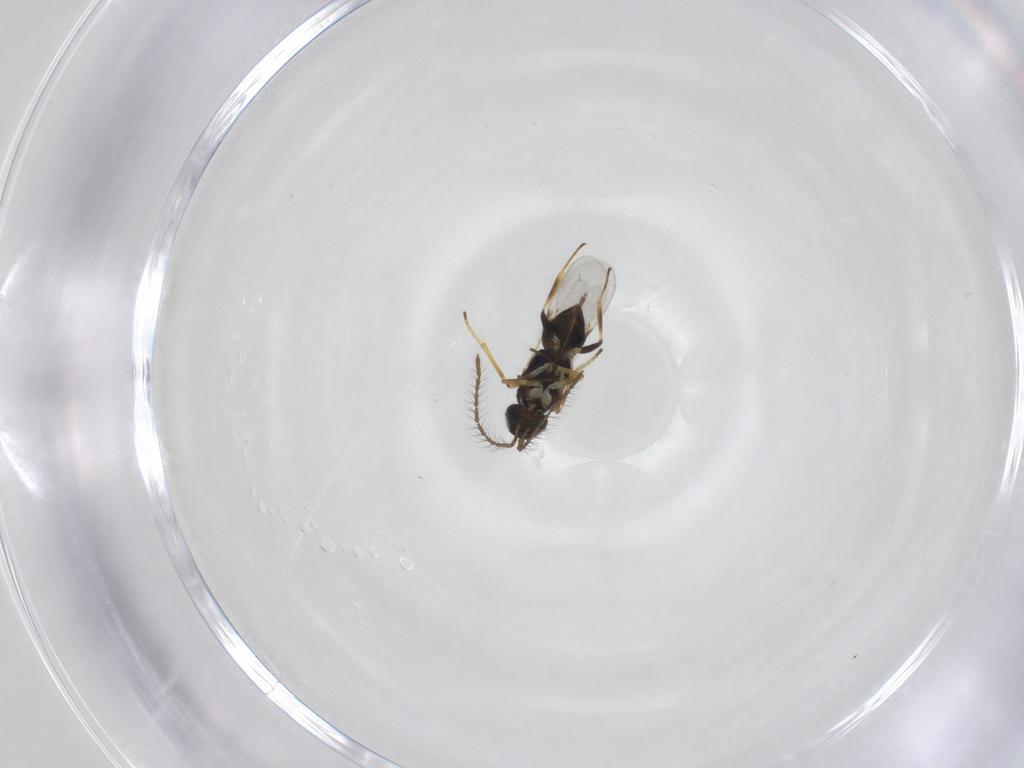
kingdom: Animalia
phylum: Arthropoda
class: Insecta
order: Hymenoptera
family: Encyrtidae
